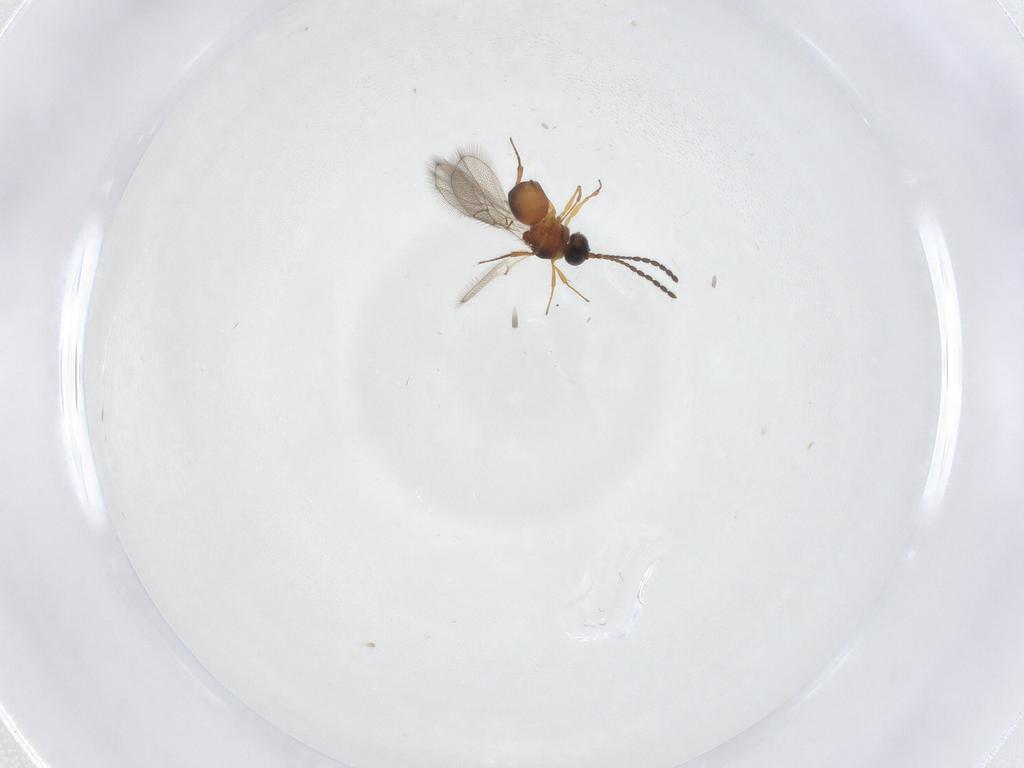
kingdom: Animalia
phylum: Arthropoda
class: Insecta
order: Hymenoptera
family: Figitidae
